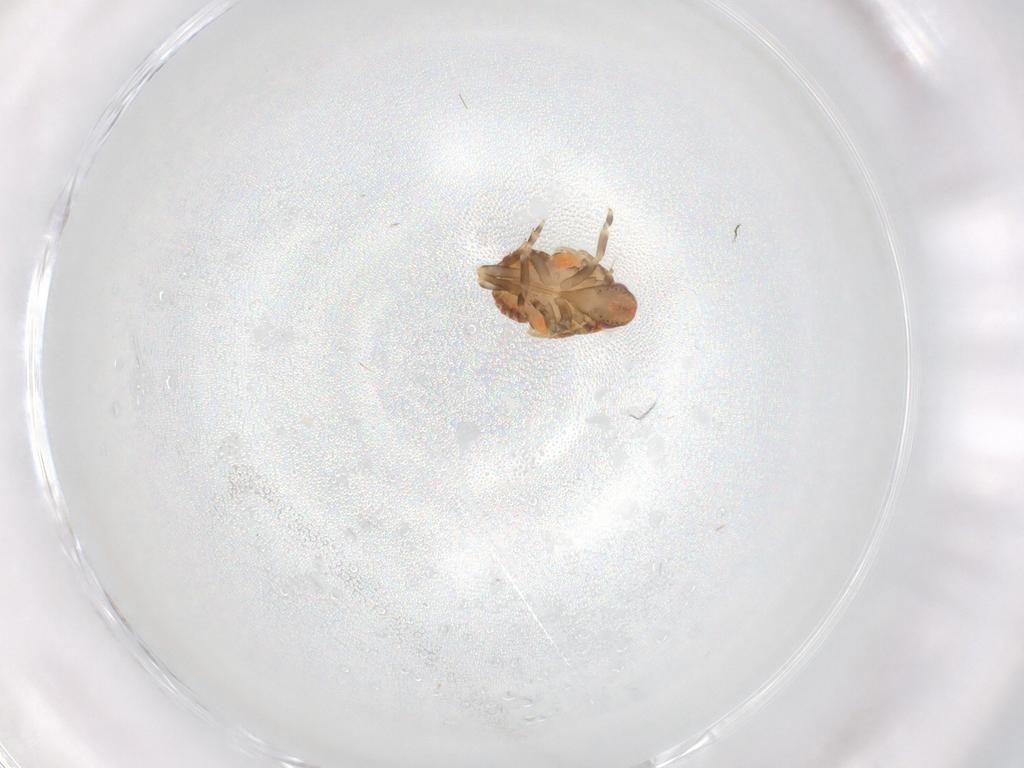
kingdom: Animalia
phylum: Arthropoda
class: Insecta
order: Hemiptera
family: Flatidae
